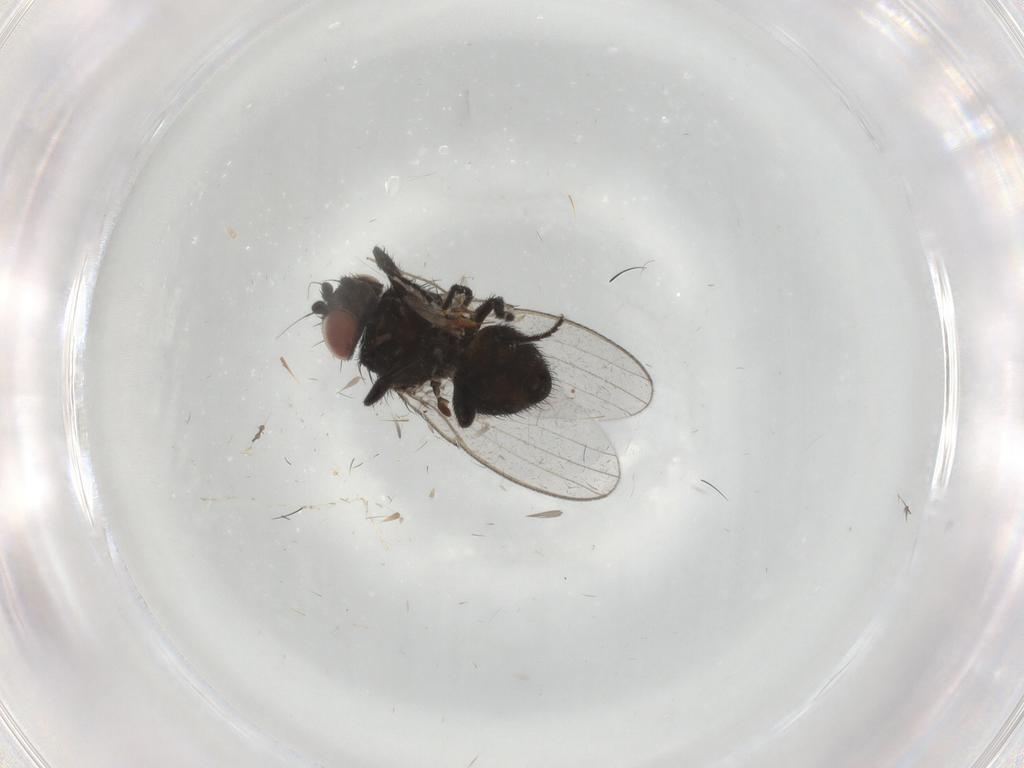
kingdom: Animalia
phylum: Arthropoda
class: Insecta
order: Diptera
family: Milichiidae
